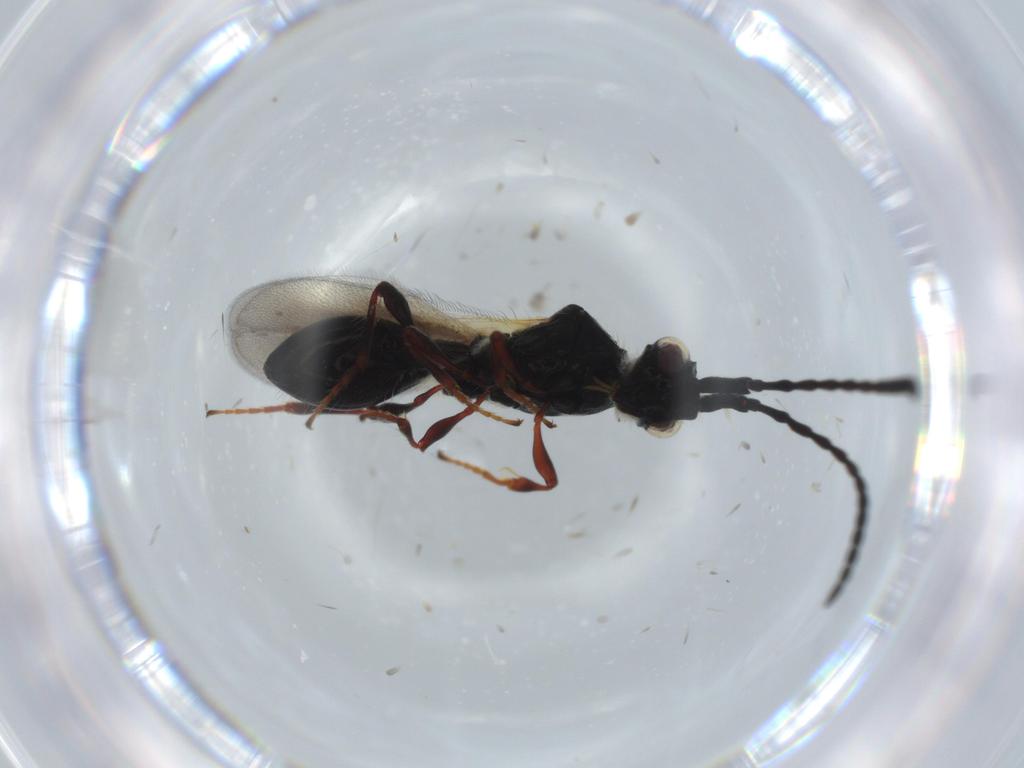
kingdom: Animalia
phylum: Arthropoda
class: Insecta
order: Hymenoptera
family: Diapriidae
